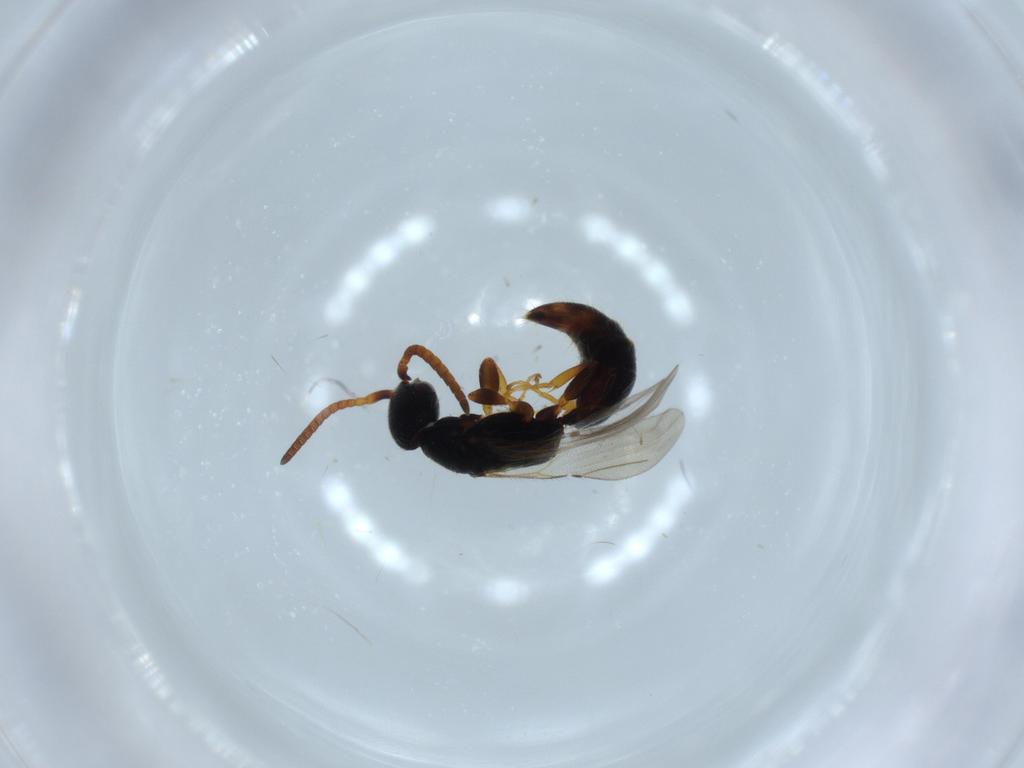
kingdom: Animalia
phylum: Arthropoda
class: Insecta
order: Hymenoptera
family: Bethylidae
